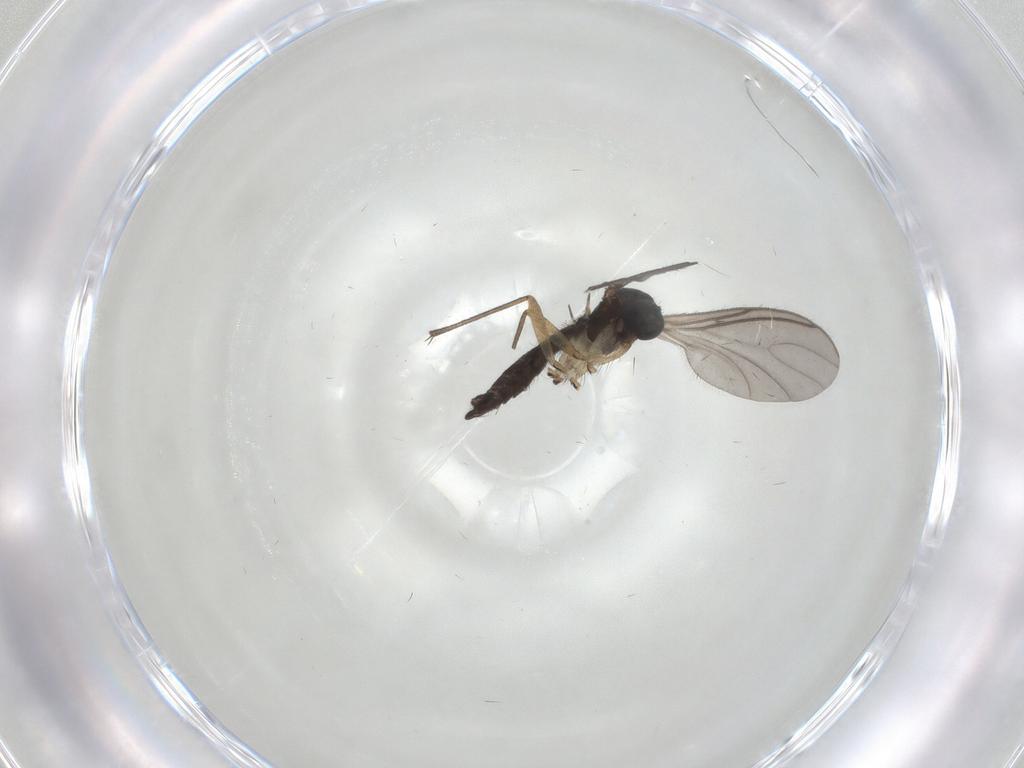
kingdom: Animalia
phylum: Arthropoda
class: Insecta
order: Diptera
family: Sciaridae
